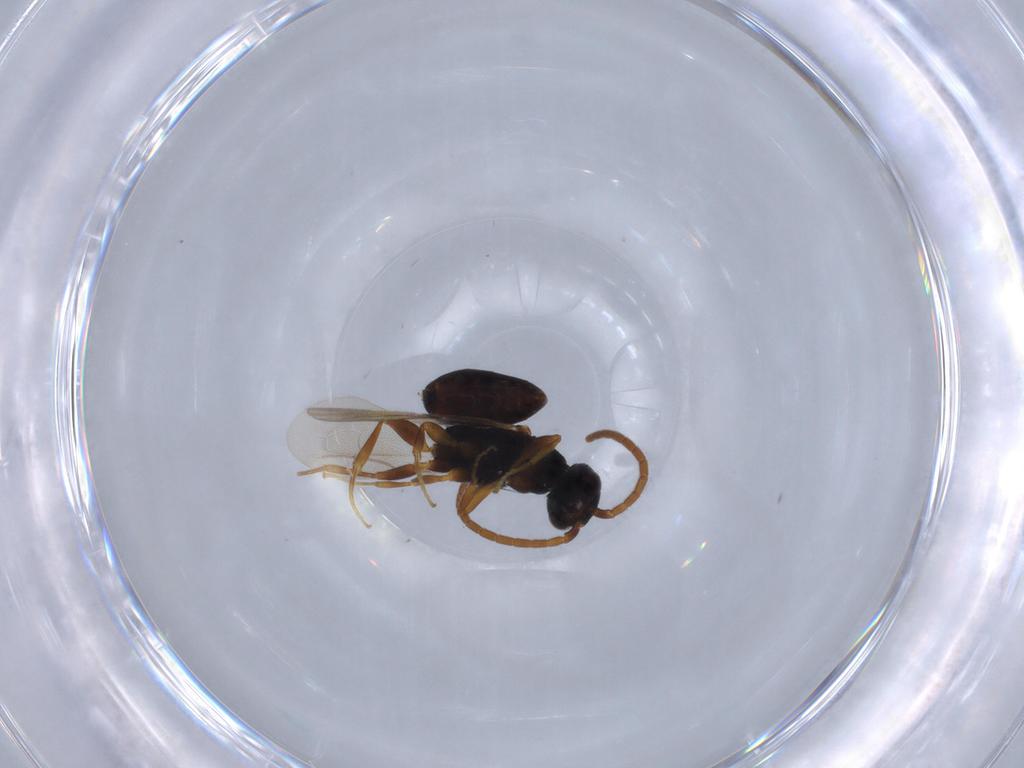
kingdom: Animalia
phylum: Arthropoda
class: Insecta
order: Hymenoptera
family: Bethylidae
